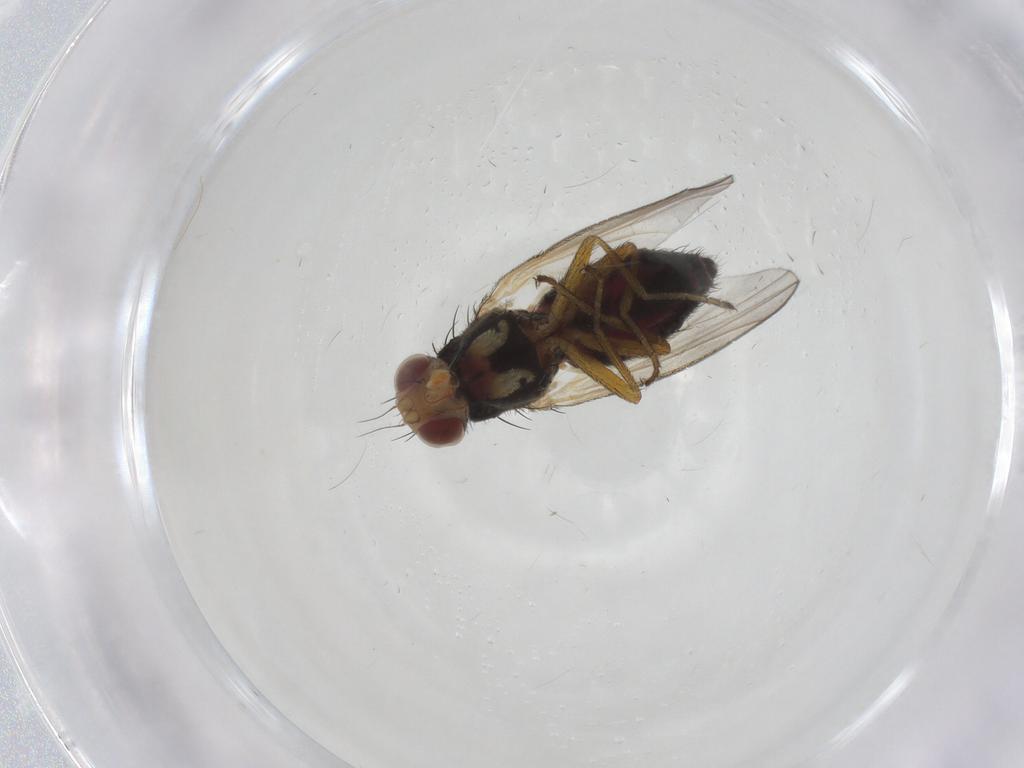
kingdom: Animalia
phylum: Arthropoda
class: Insecta
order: Diptera
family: Heleomyzidae
